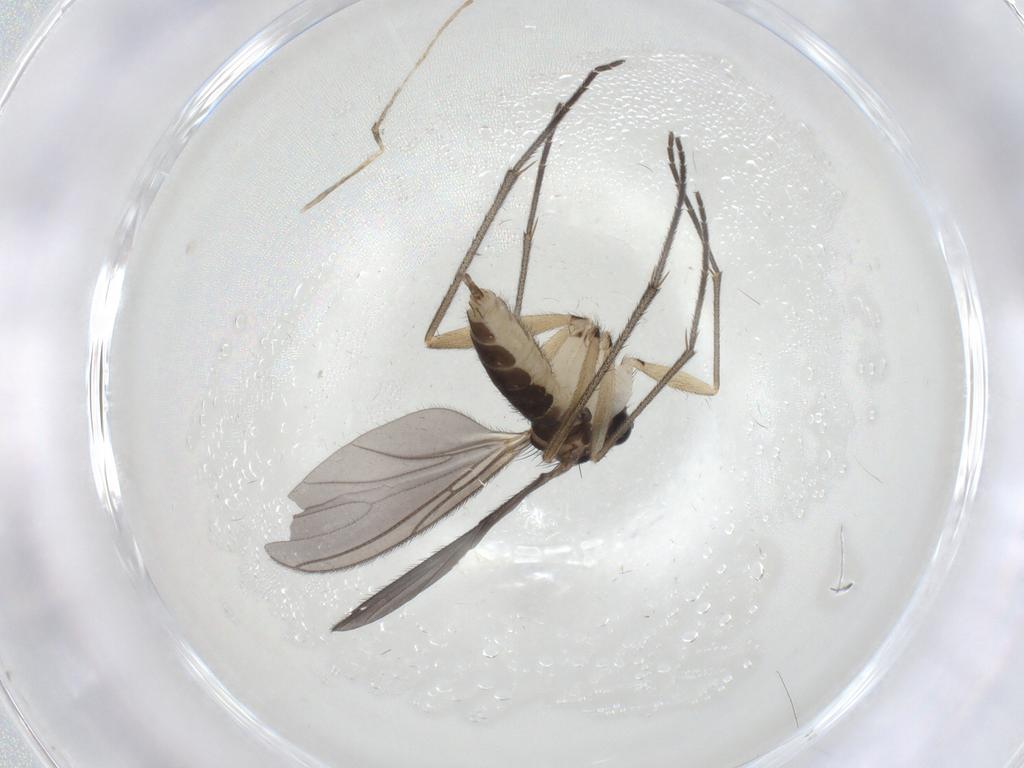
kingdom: Animalia
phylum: Arthropoda
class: Insecta
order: Diptera
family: Sciaridae
